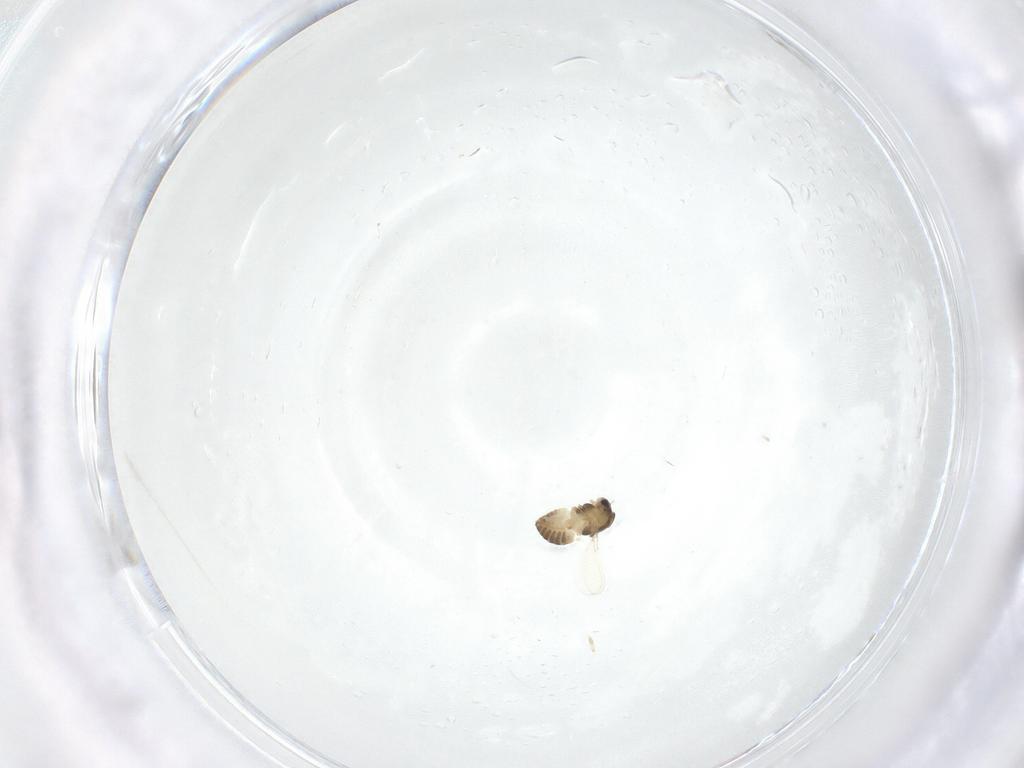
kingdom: Animalia
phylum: Arthropoda
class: Insecta
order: Diptera
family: Chironomidae
